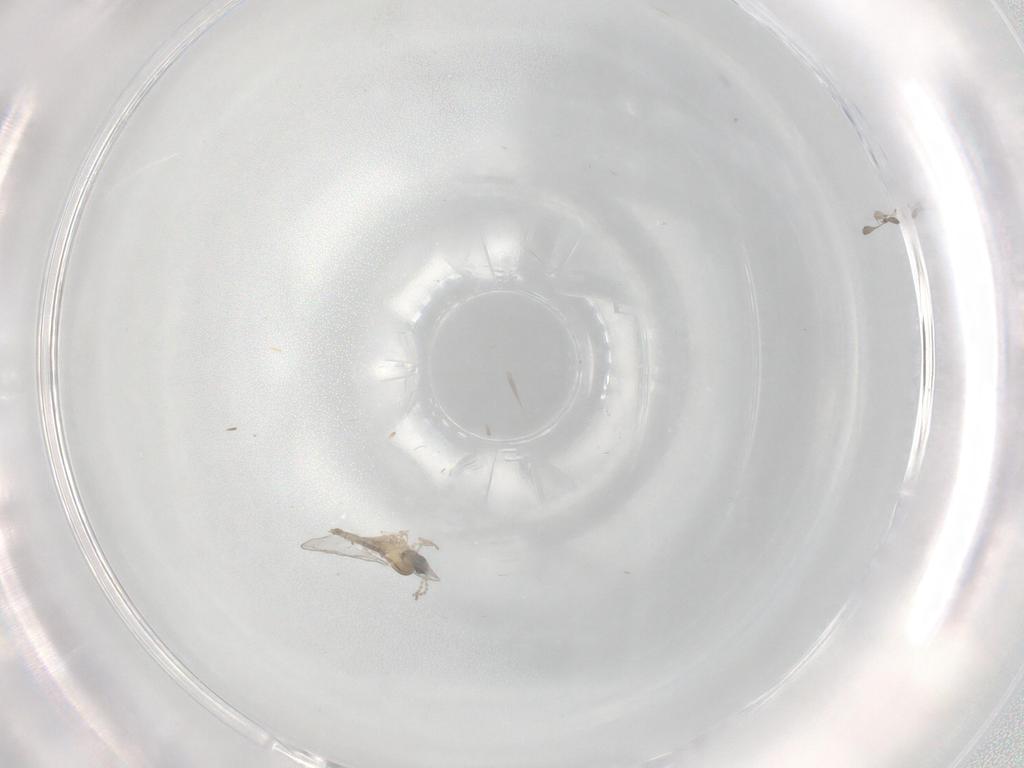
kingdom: Animalia
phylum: Arthropoda
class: Insecta
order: Diptera
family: Cecidomyiidae
